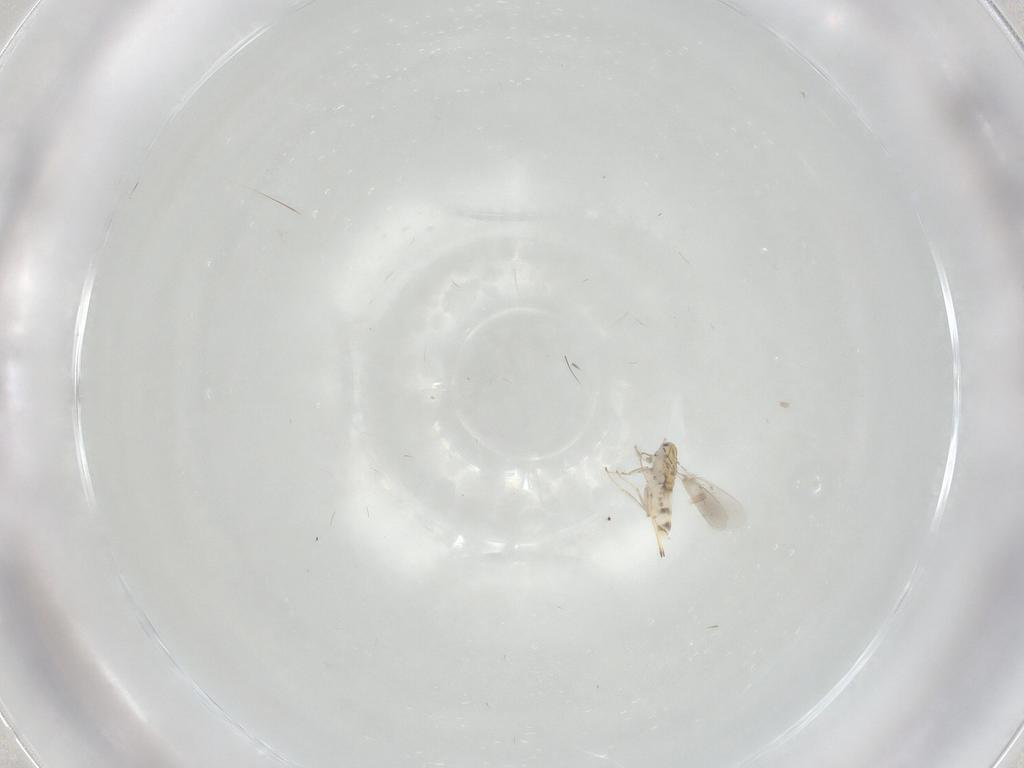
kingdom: Animalia
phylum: Arthropoda
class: Insecta
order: Hymenoptera
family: Aphelinidae
